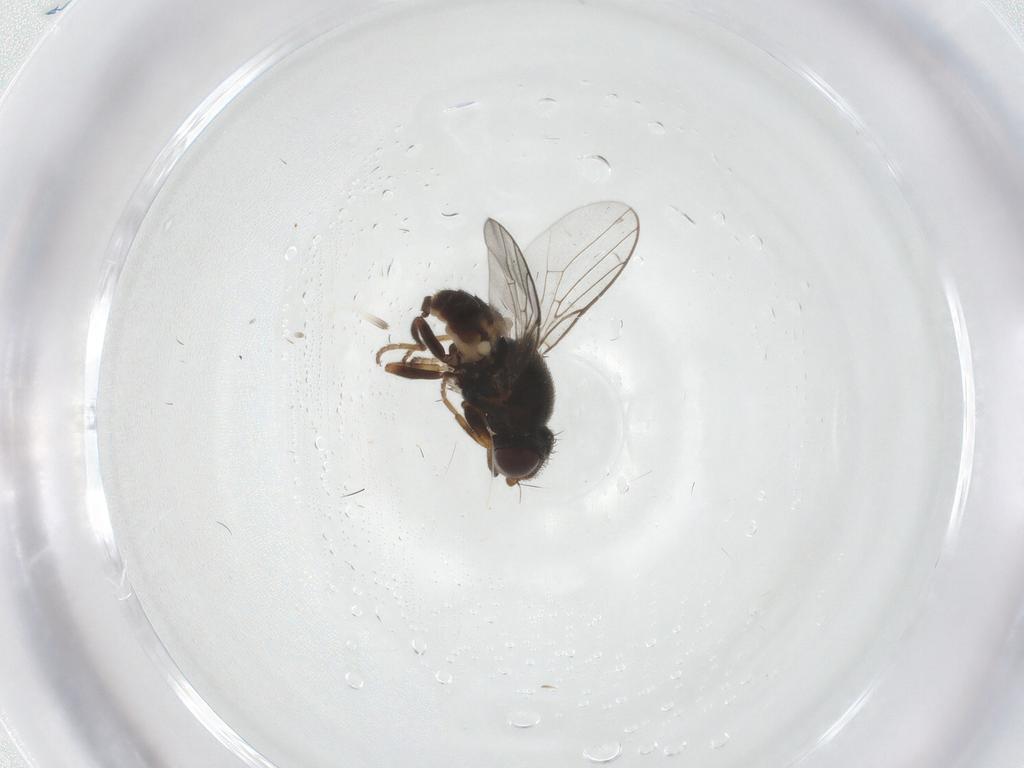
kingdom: Animalia
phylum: Arthropoda
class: Insecta
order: Diptera
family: Chloropidae
